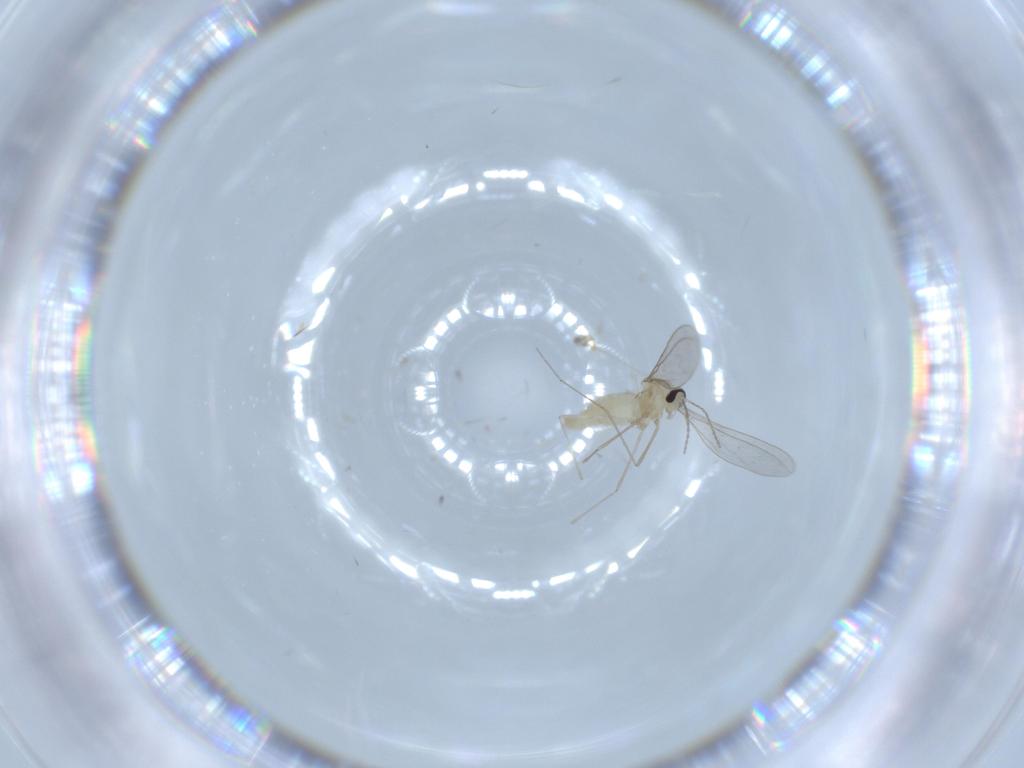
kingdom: Animalia
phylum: Arthropoda
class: Insecta
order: Diptera
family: Cecidomyiidae
